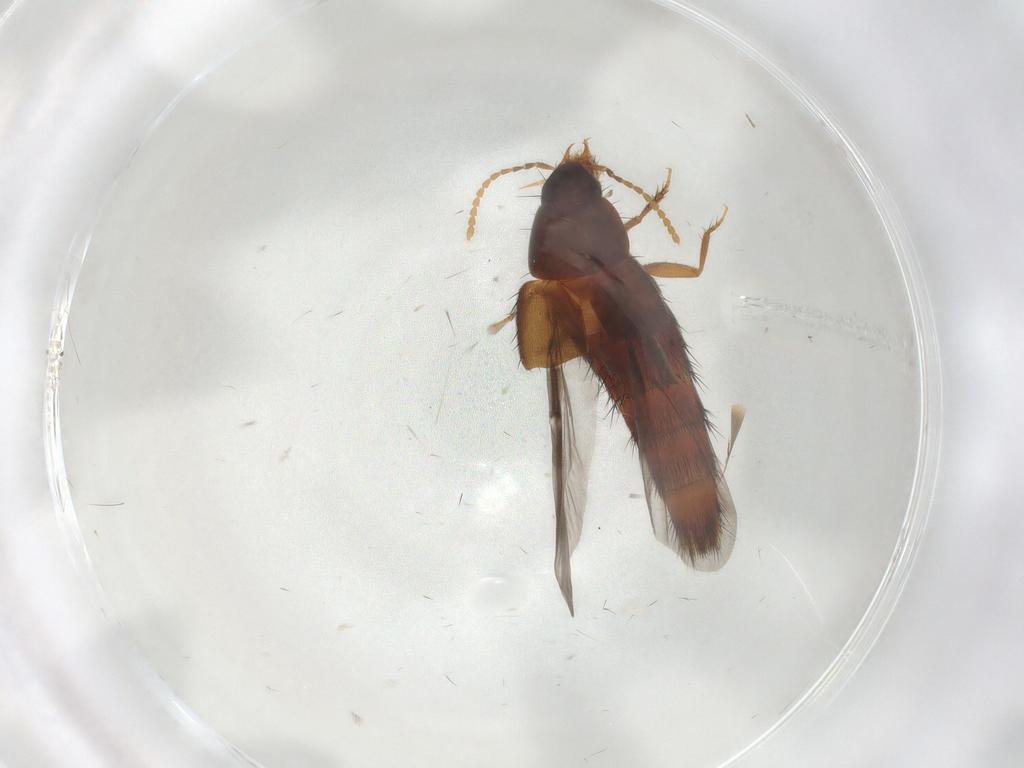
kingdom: Animalia
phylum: Arthropoda
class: Insecta
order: Coleoptera
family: Staphylinidae
